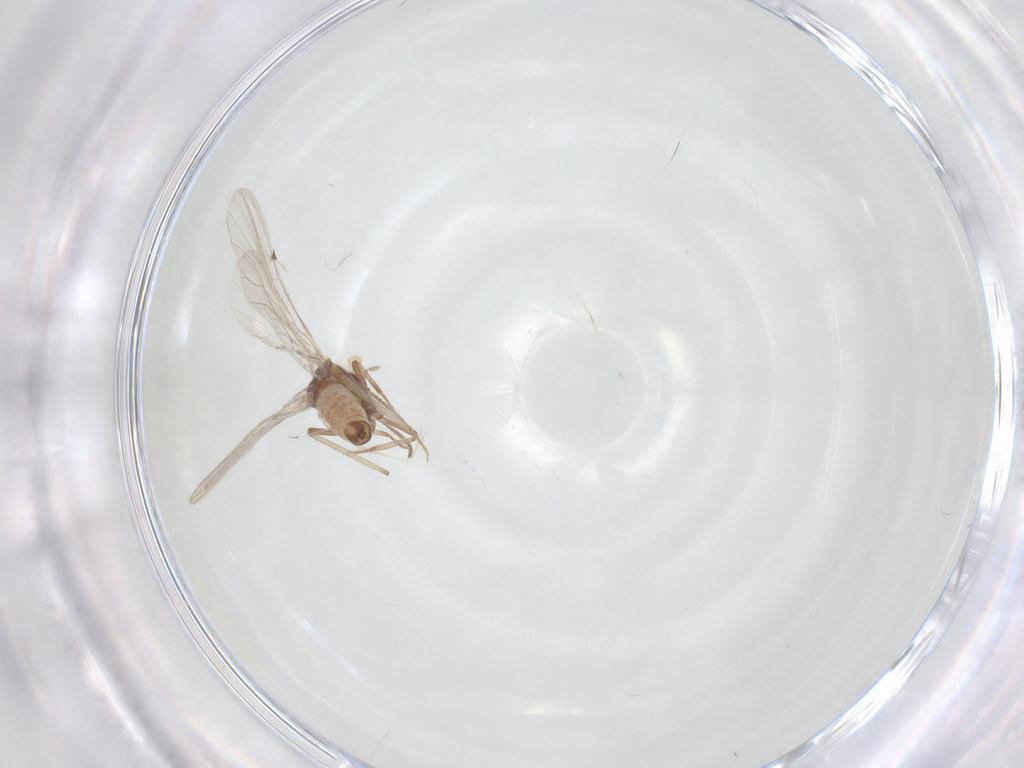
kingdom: Animalia
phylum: Arthropoda
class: Insecta
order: Neuroptera
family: Coniopterygidae
